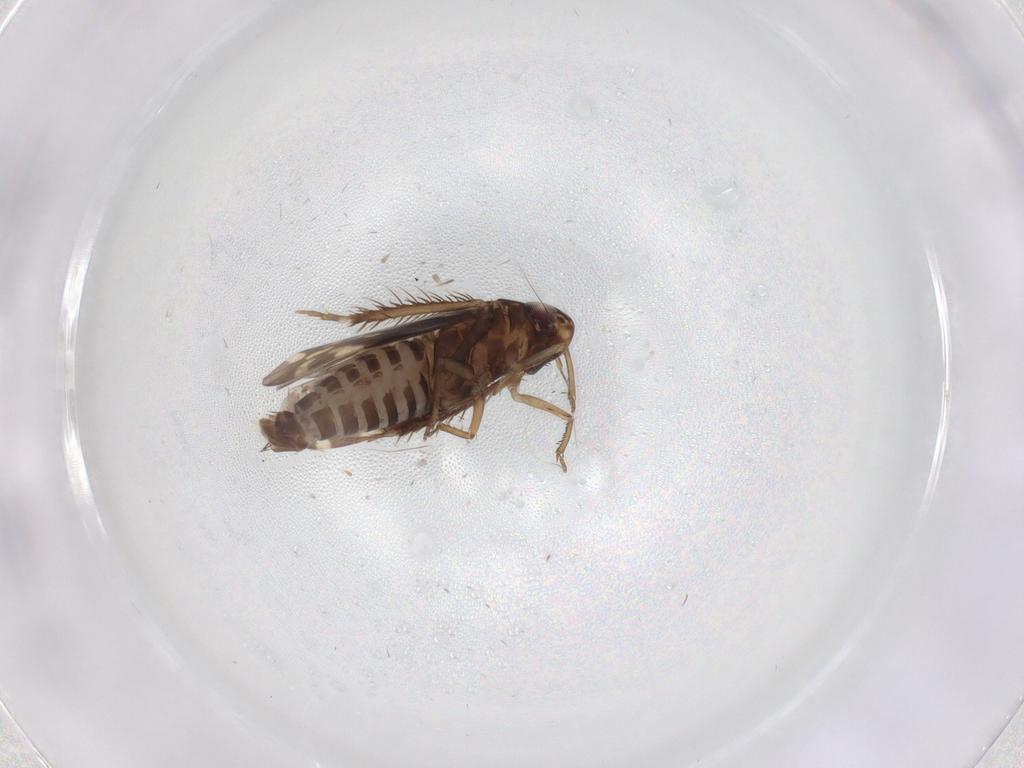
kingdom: Animalia
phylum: Arthropoda
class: Insecta
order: Hemiptera
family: Cicadellidae
